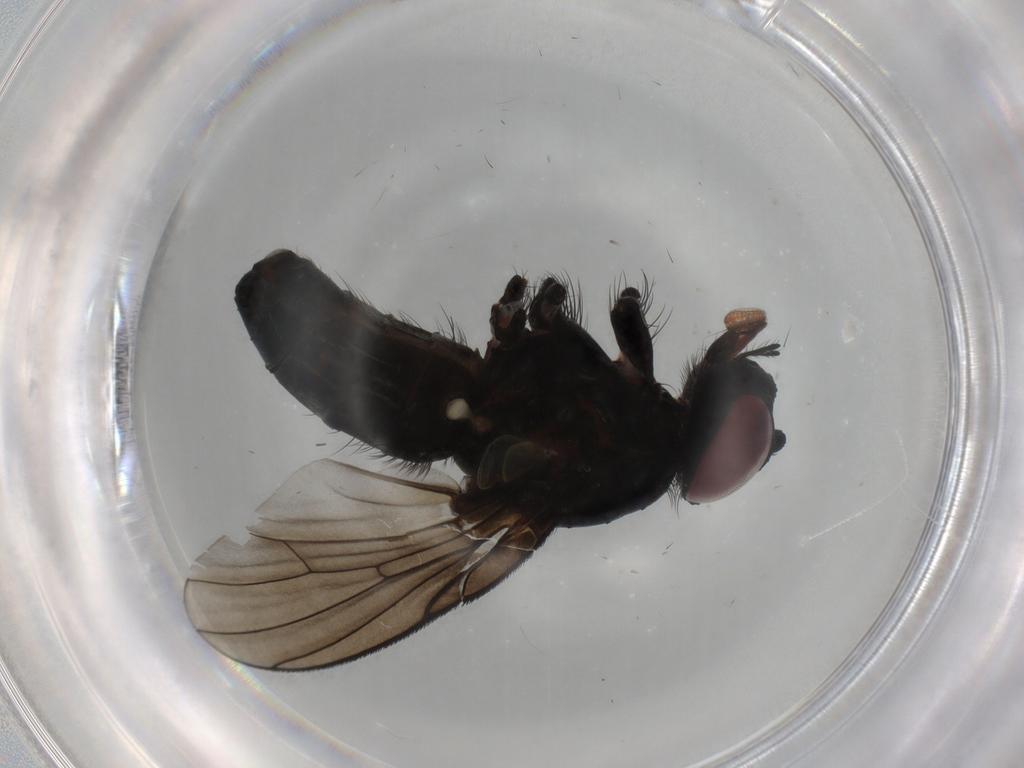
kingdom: Animalia
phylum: Arthropoda
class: Insecta
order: Diptera
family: Muscidae
